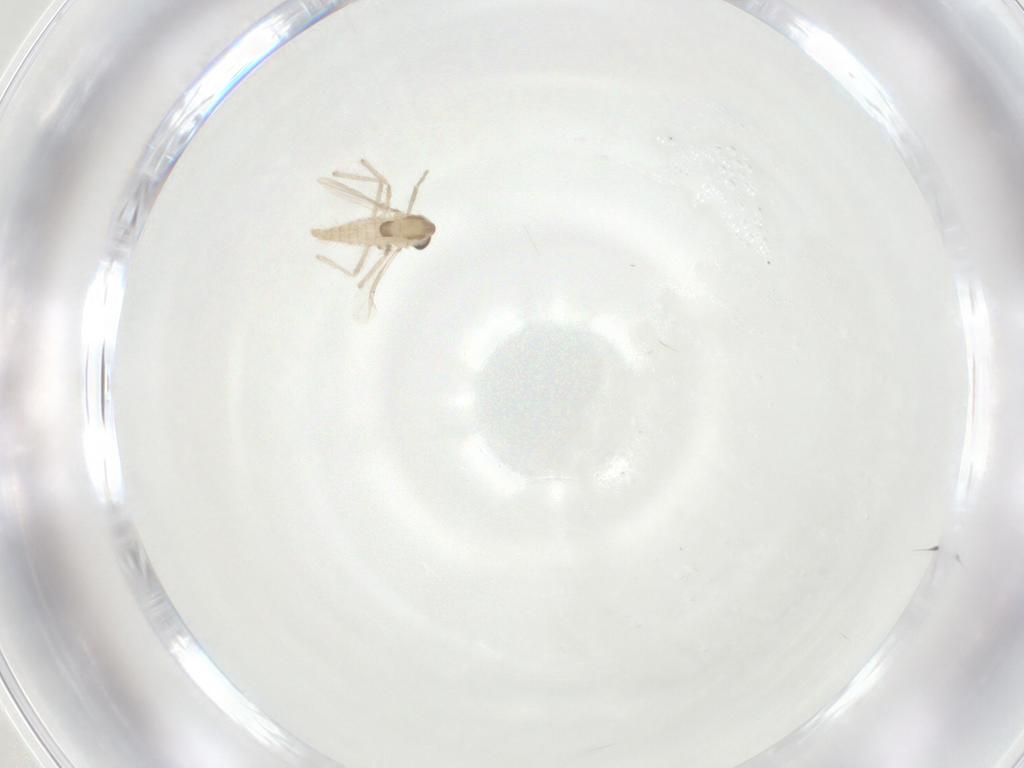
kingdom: Animalia
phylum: Arthropoda
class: Insecta
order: Diptera
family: Chironomidae
